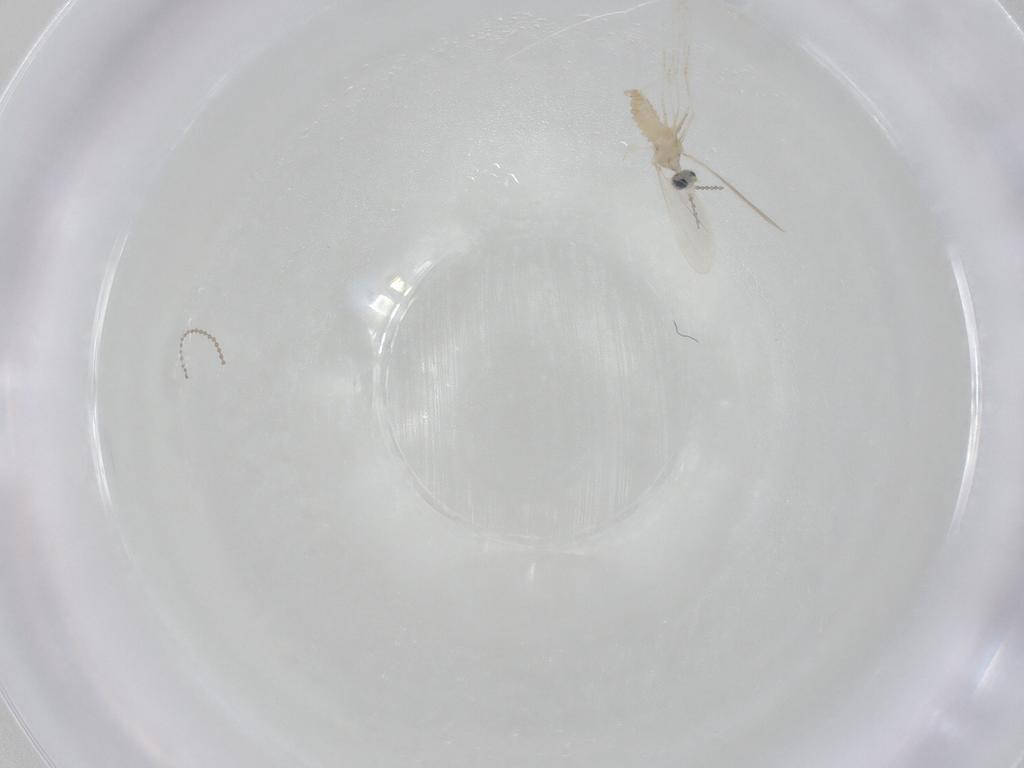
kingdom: Animalia
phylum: Arthropoda
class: Insecta
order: Diptera
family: Cecidomyiidae
